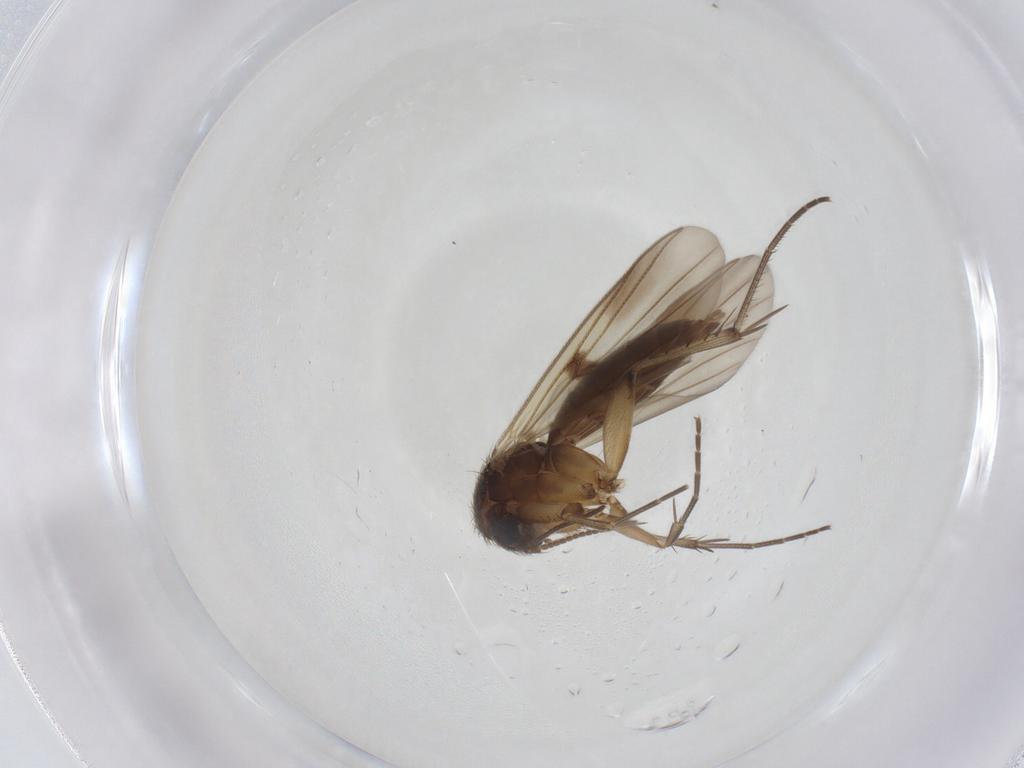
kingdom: Animalia
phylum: Arthropoda
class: Insecta
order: Diptera
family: Mycetophilidae
